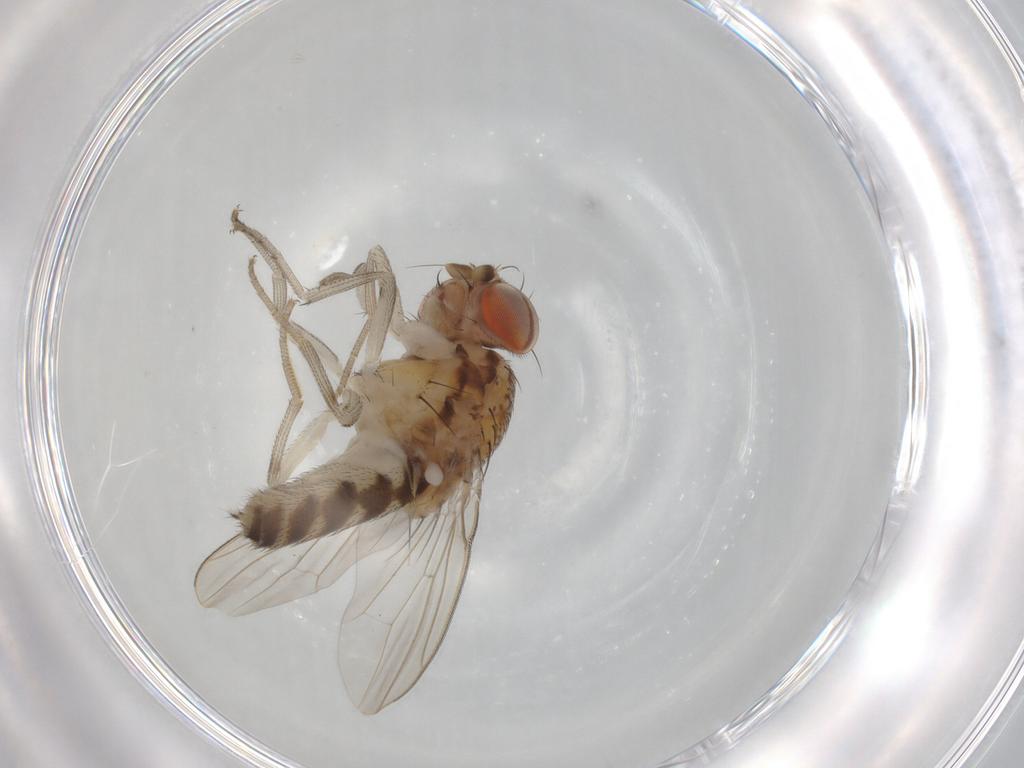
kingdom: Animalia
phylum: Arthropoda
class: Insecta
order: Diptera
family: Drosophilidae
